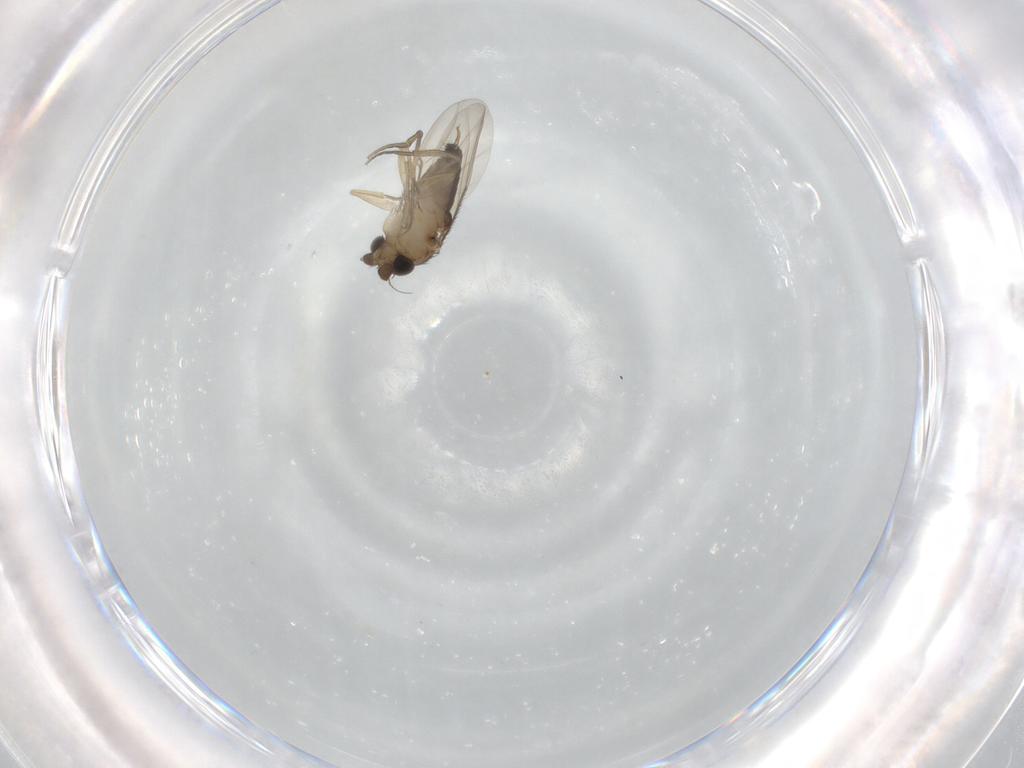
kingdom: Animalia
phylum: Arthropoda
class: Insecta
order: Diptera
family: Phoridae
